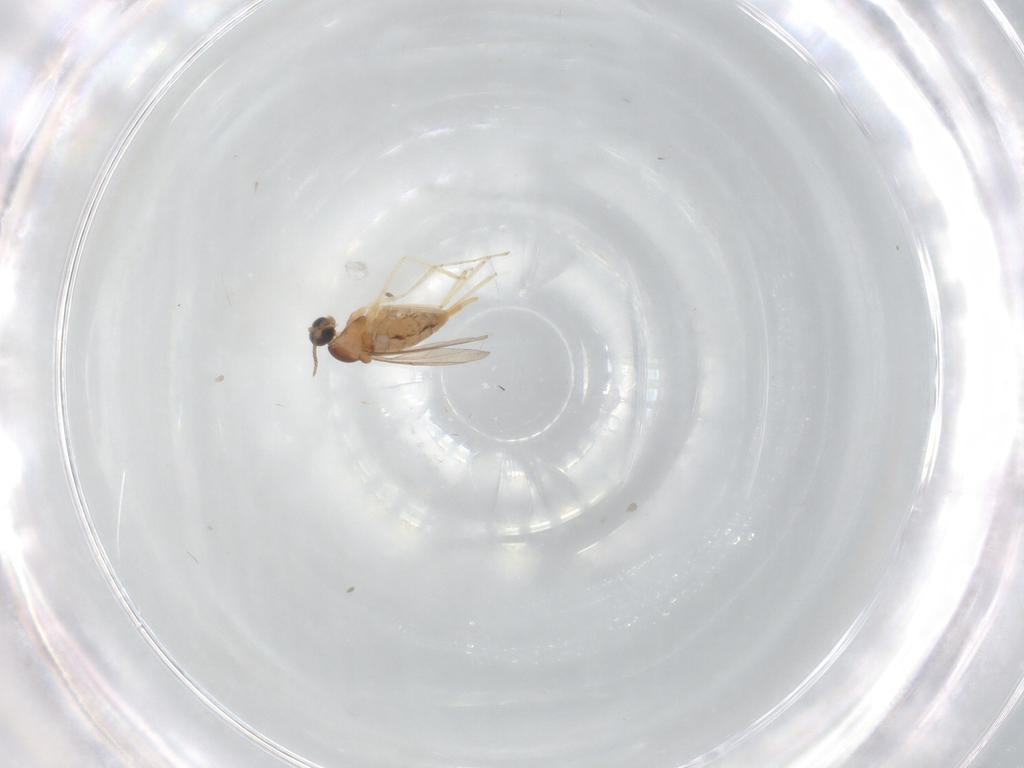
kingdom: Animalia
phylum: Arthropoda
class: Insecta
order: Diptera
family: Cecidomyiidae
